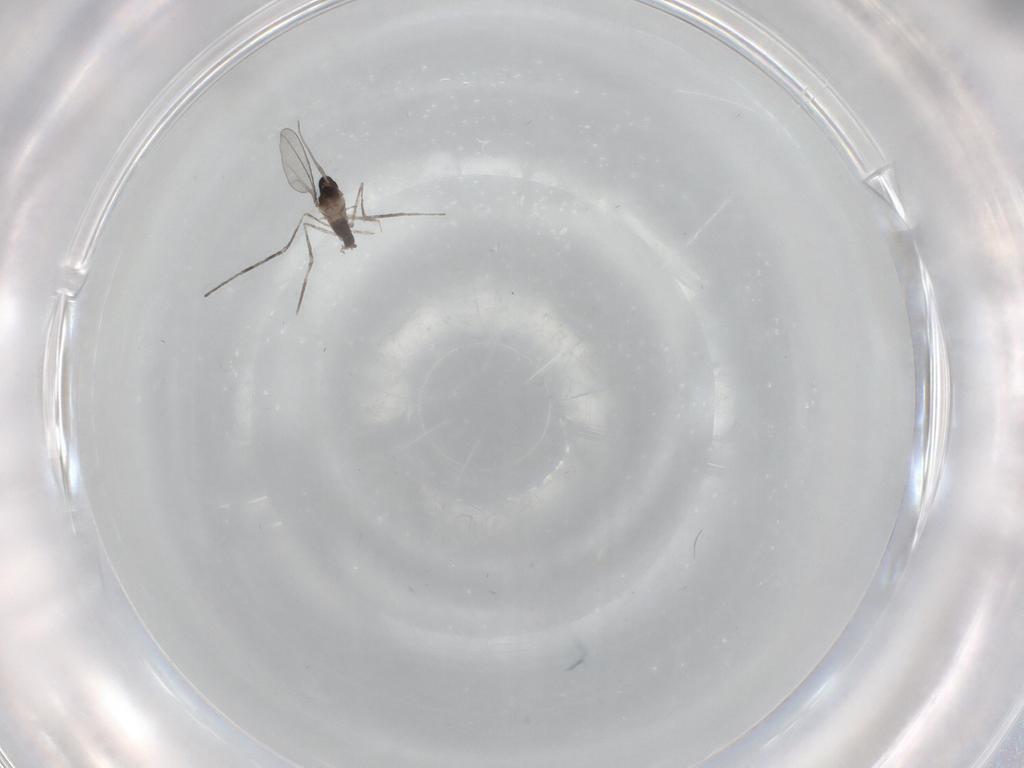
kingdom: Animalia
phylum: Arthropoda
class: Insecta
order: Diptera
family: Cecidomyiidae
